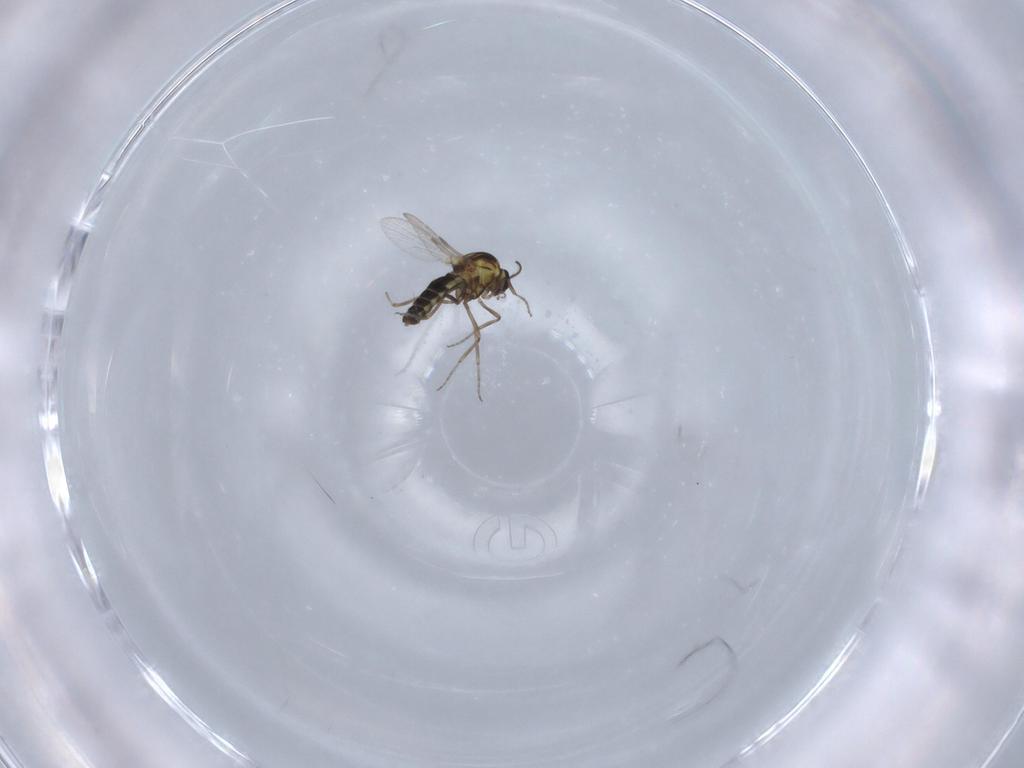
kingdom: Animalia
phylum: Arthropoda
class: Insecta
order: Diptera
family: Ceratopogonidae
